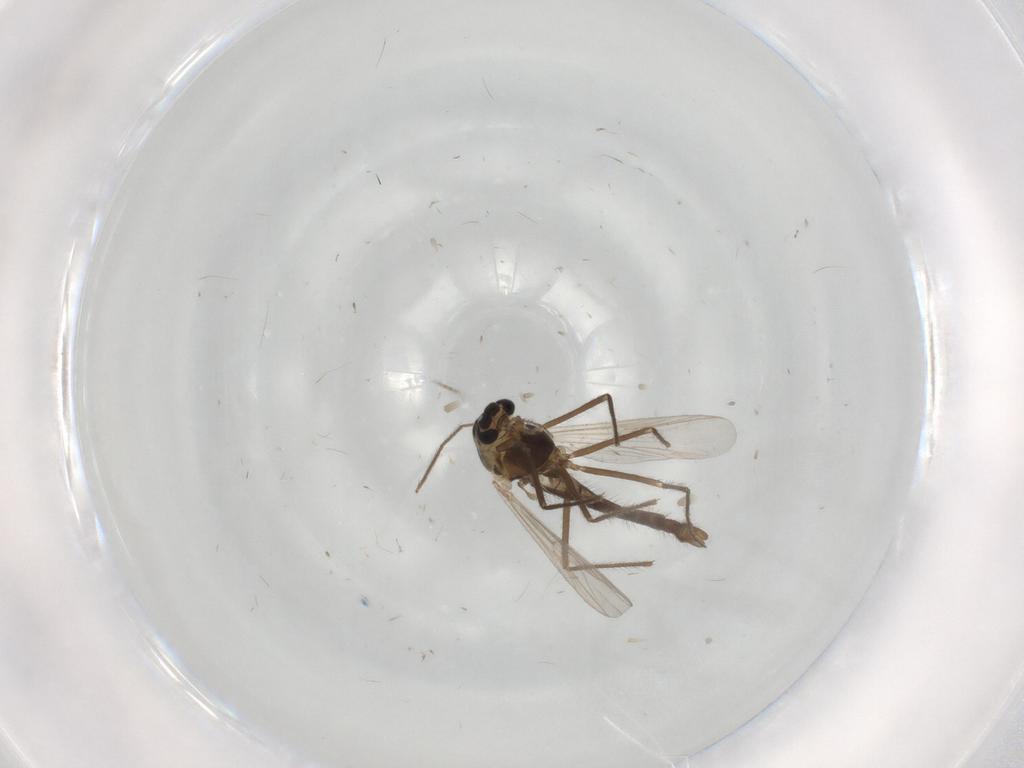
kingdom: Animalia
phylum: Arthropoda
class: Insecta
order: Diptera
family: Chironomidae
